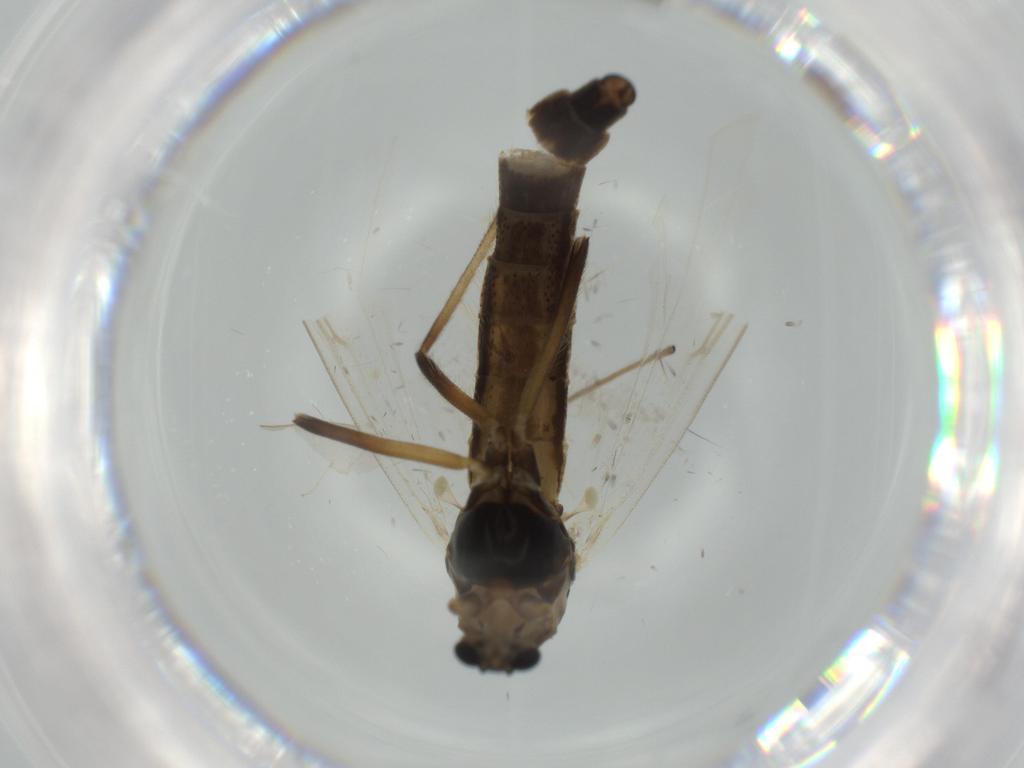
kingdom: Animalia
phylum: Arthropoda
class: Insecta
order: Diptera
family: Chironomidae
